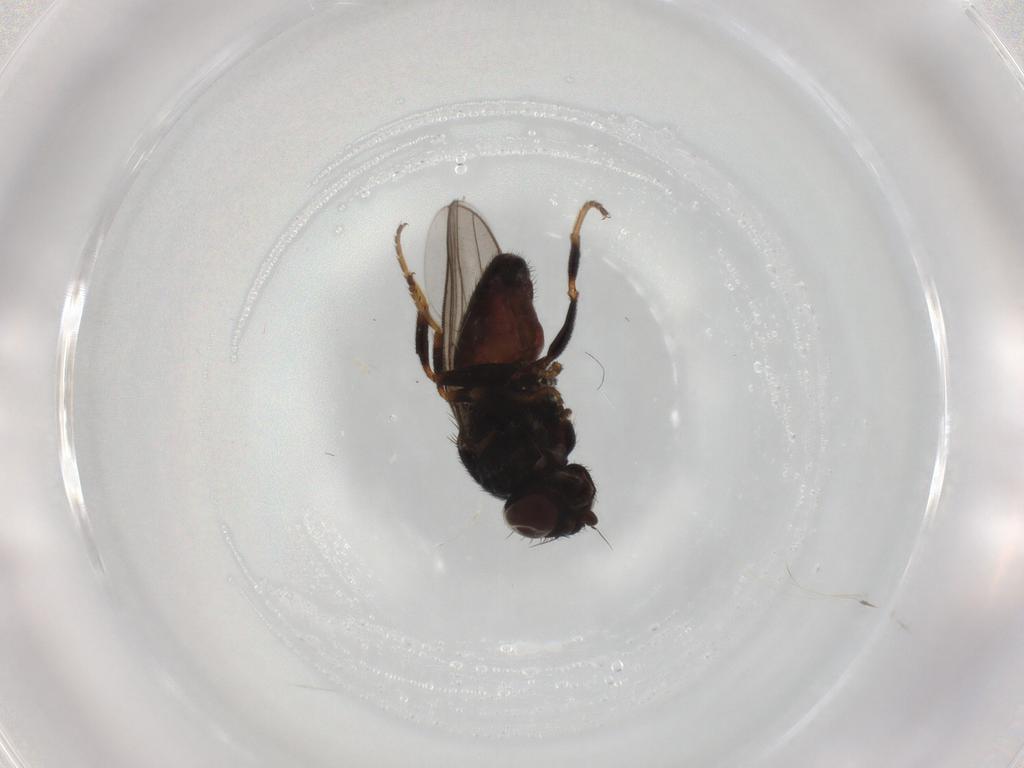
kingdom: Animalia
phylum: Arthropoda
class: Insecta
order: Diptera
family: Chloropidae
